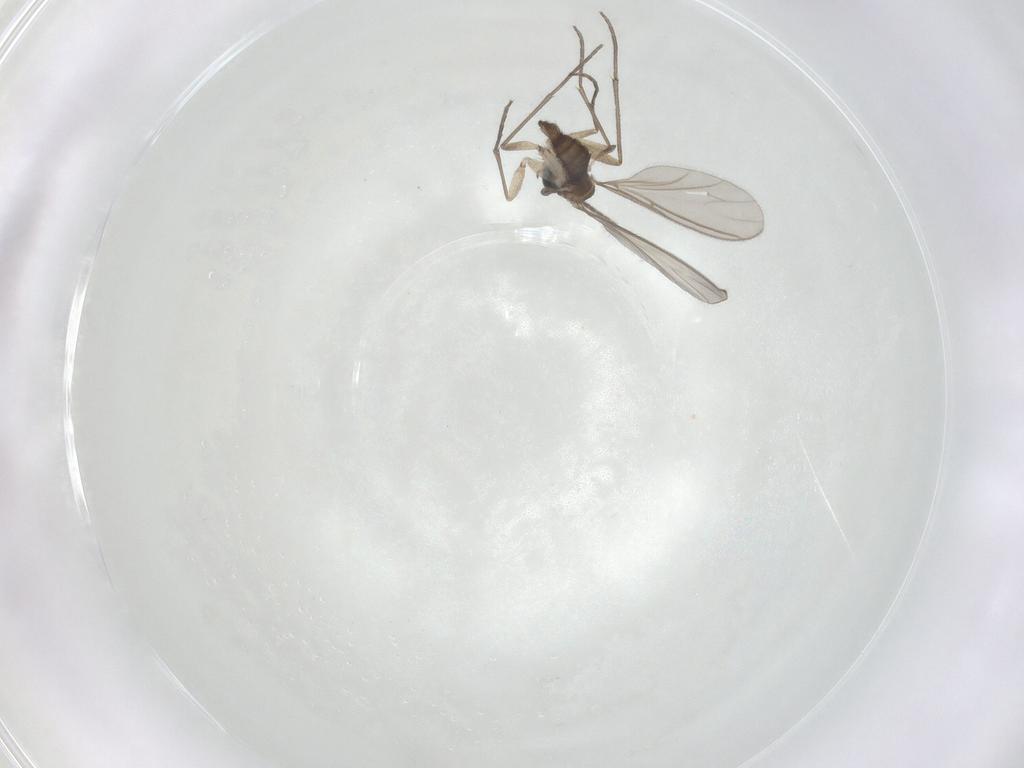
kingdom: Animalia
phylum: Arthropoda
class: Insecta
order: Diptera
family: Sciaridae
